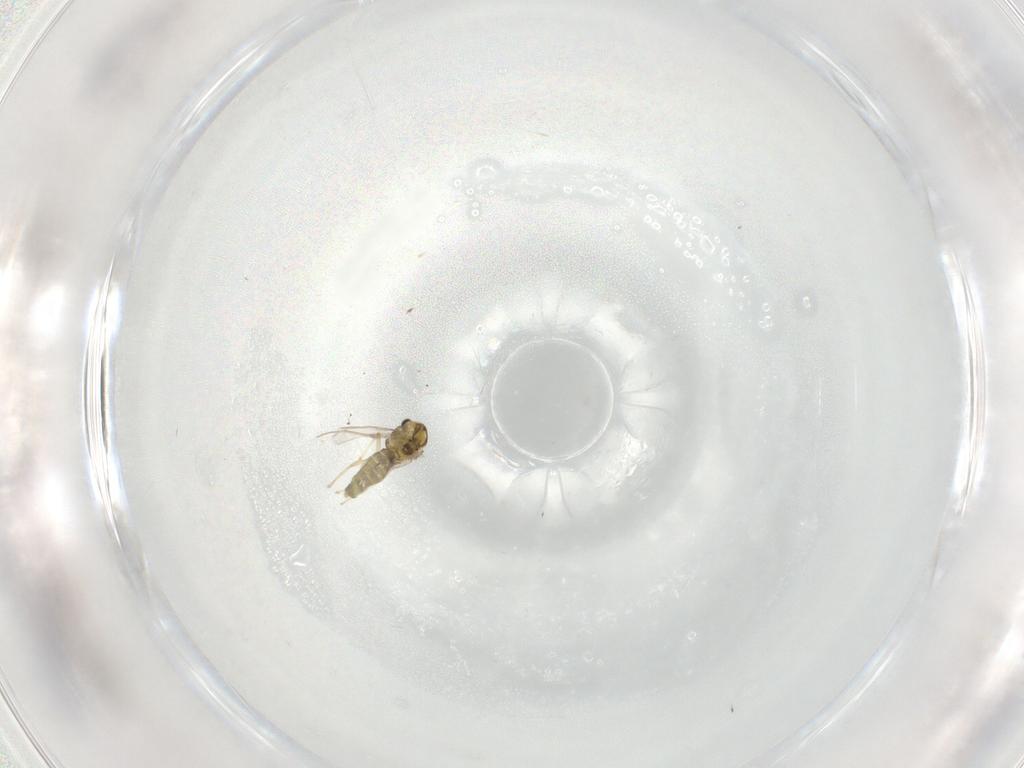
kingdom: Animalia
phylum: Arthropoda
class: Insecta
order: Diptera
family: Chironomidae
